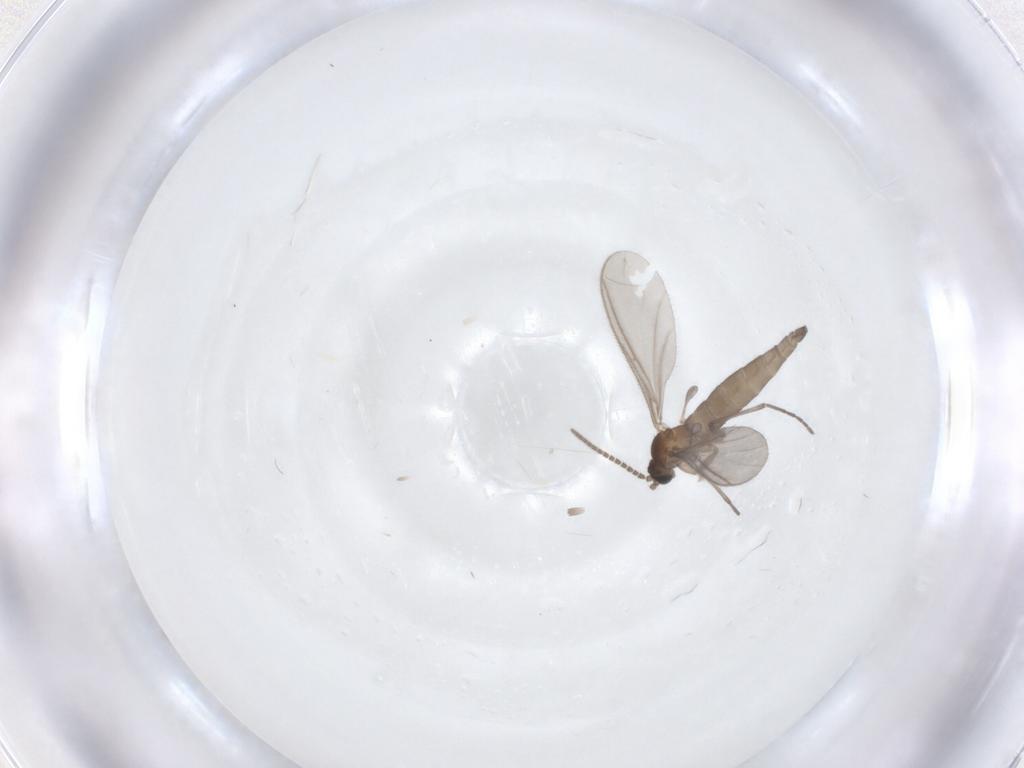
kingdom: Animalia
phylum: Arthropoda
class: Insecta
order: Diptera
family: Sciaridae
